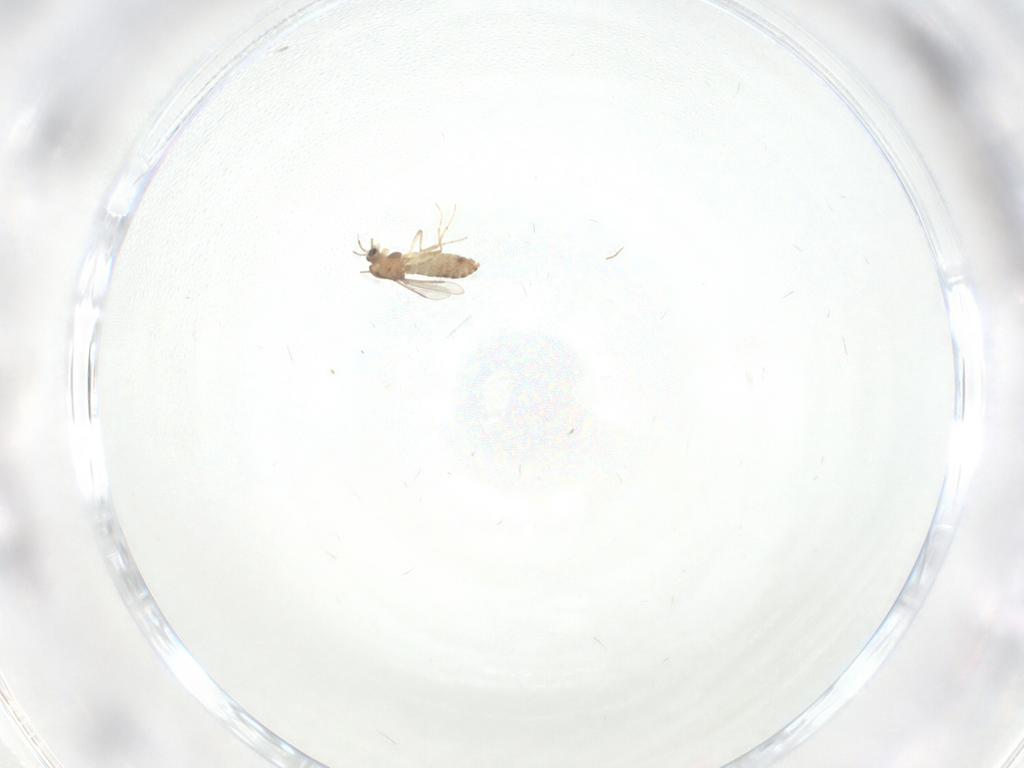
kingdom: Animalia
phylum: Arthropoda
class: Insecta
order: Diptera
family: Chironomidae
